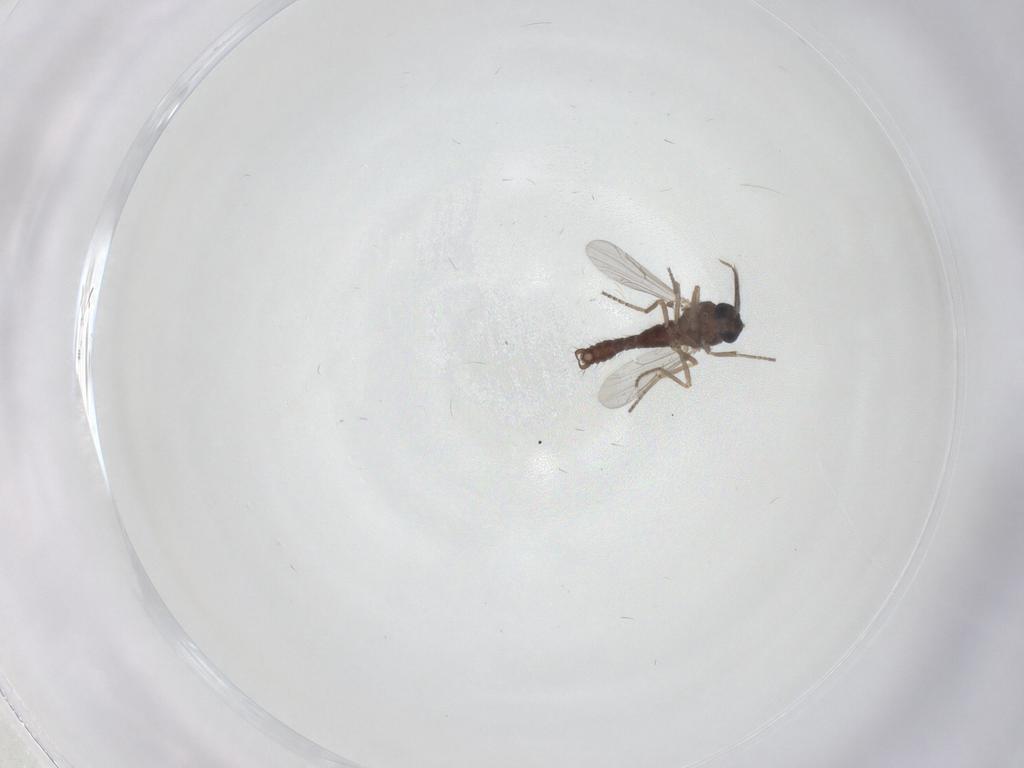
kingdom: Animalia
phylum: Arthropoda
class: Insecta
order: Diptera
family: Ceratopogonidae
